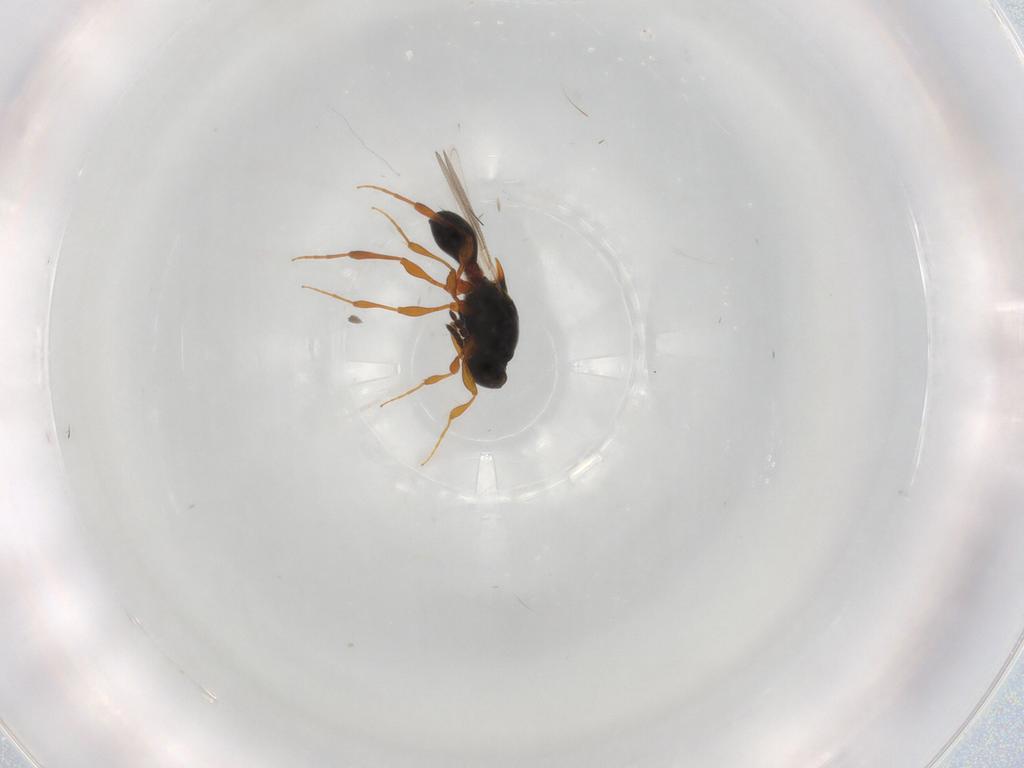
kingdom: Animalia
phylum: Arthropoda
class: Insecta
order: Hymenoptera
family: Platygastridae
